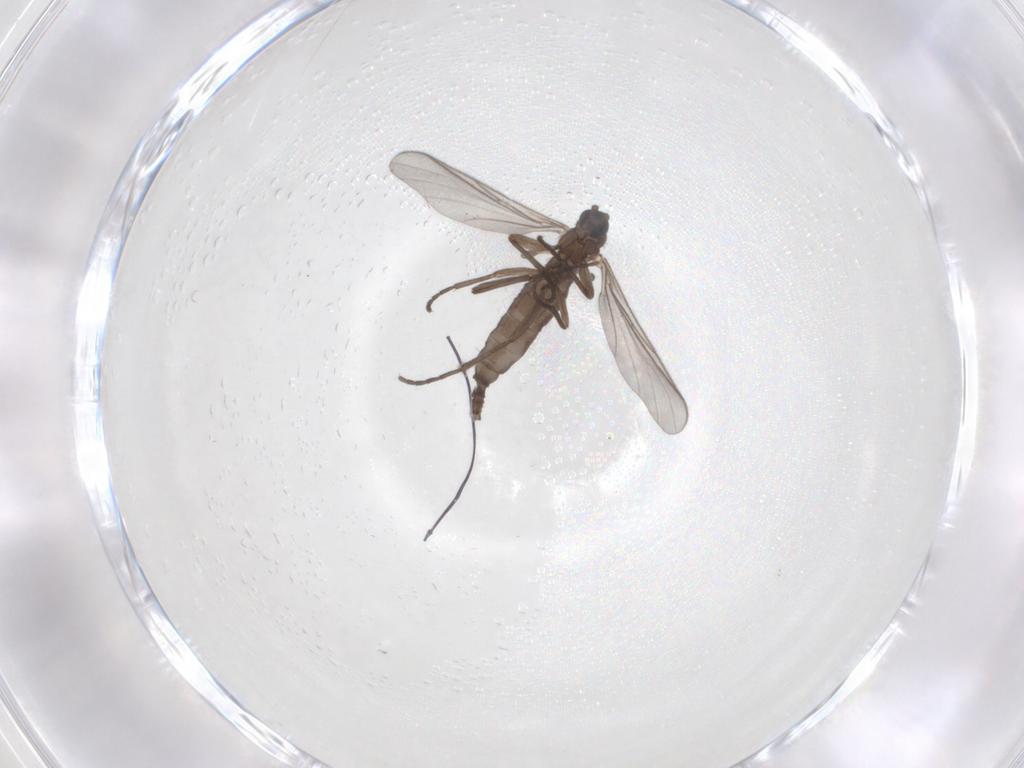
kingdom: Animalia
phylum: Arthropoda
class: Insecta
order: Diptera
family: Sciaridae
